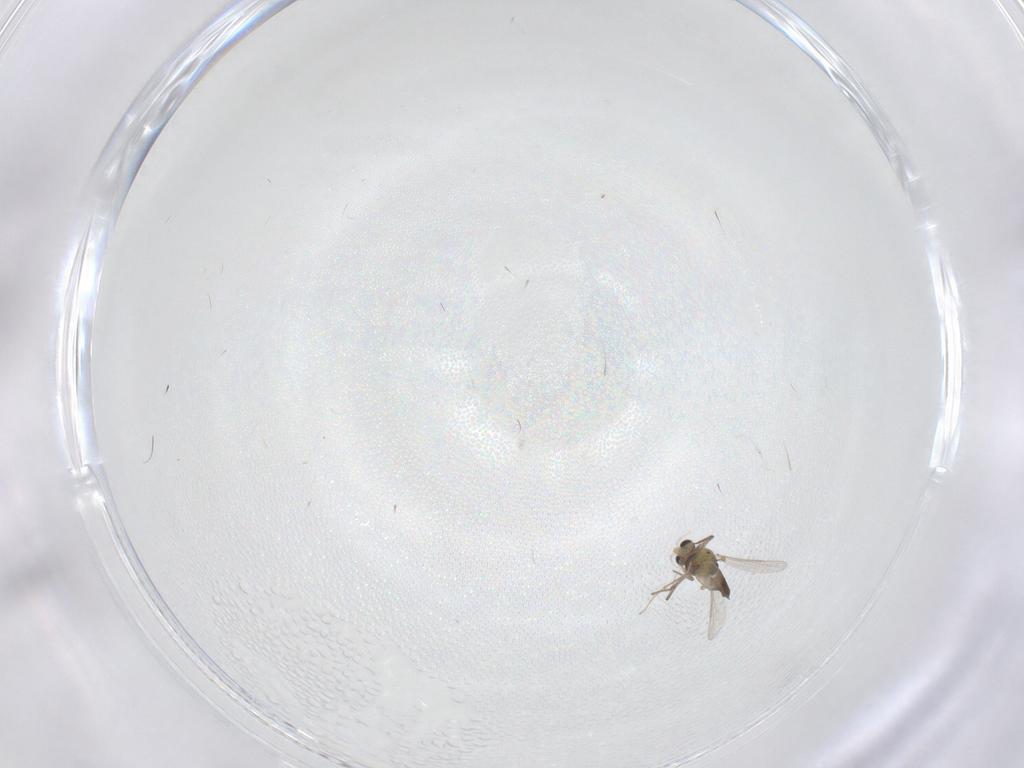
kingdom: Animalia
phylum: Arthropoda
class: Insecta
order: Diptera
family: Chironomidae
